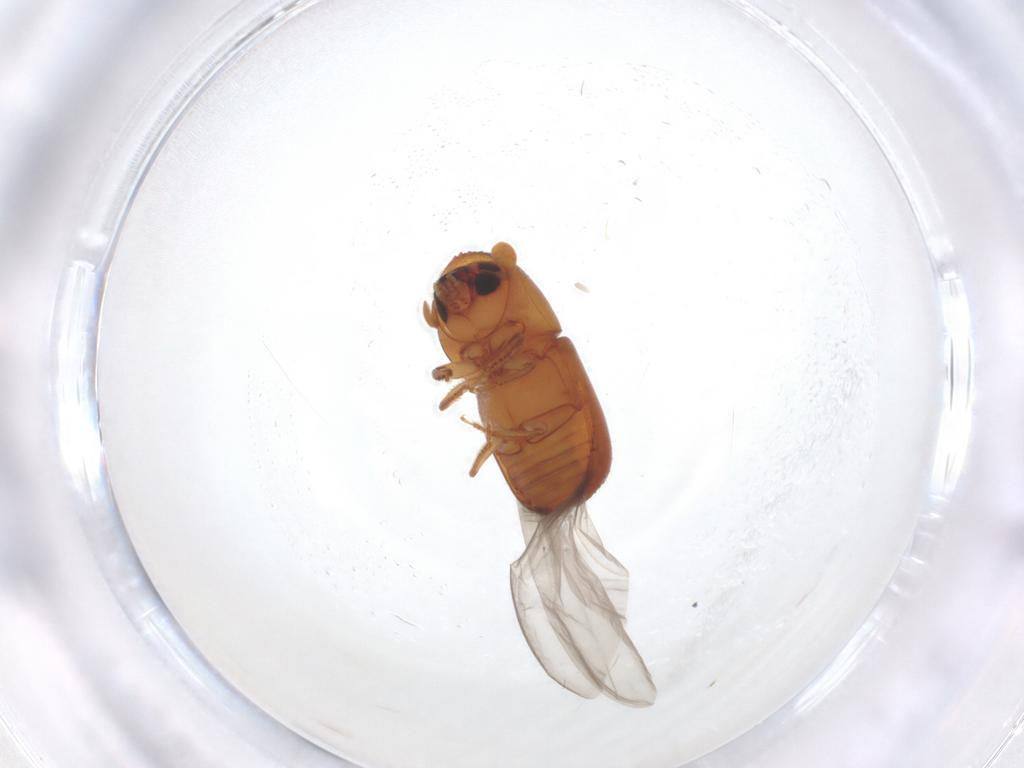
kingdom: Animalia
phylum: Arthropoda
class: Insecta
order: Coleoptera
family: Curculionidae
